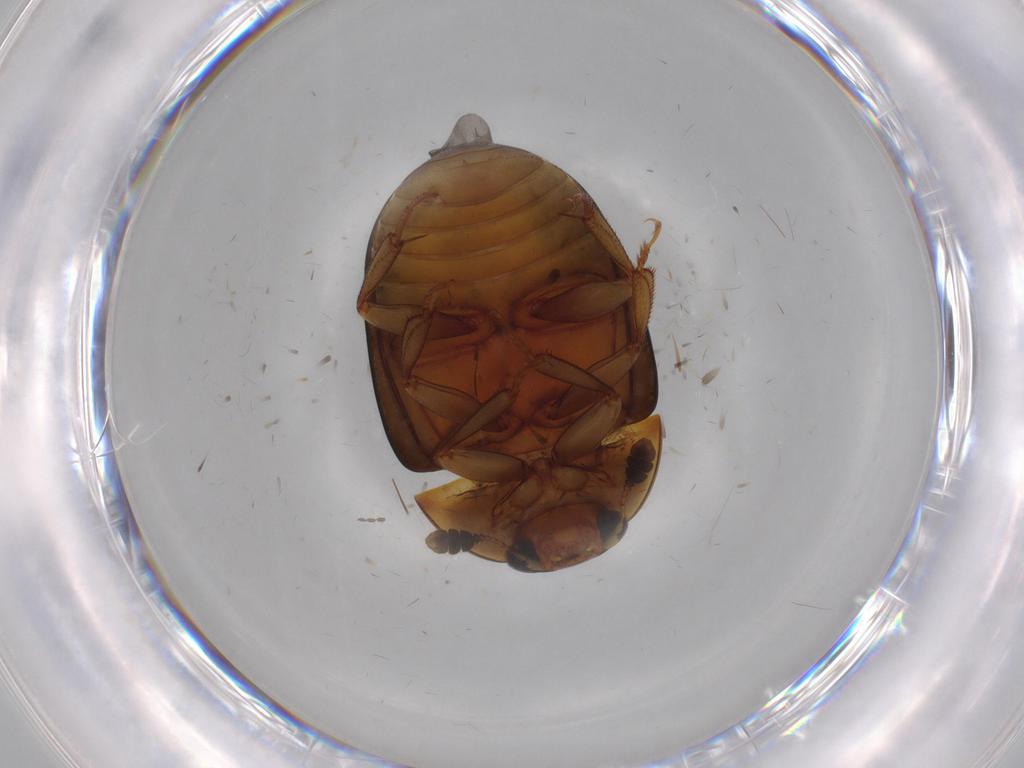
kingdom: Animalia
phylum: Arthropoda
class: Insecta
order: Coleoptera
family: Nitidulidae
